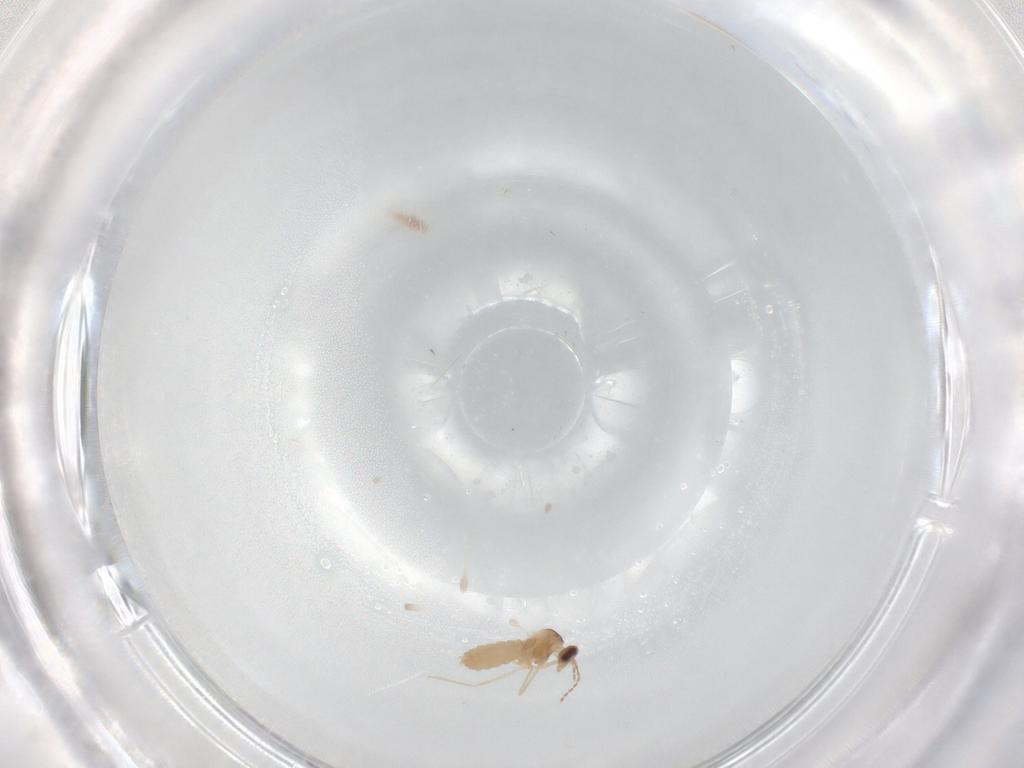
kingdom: Animalia
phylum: Arthropoda
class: Insecta
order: Diptera
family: Cecidomyiidae
